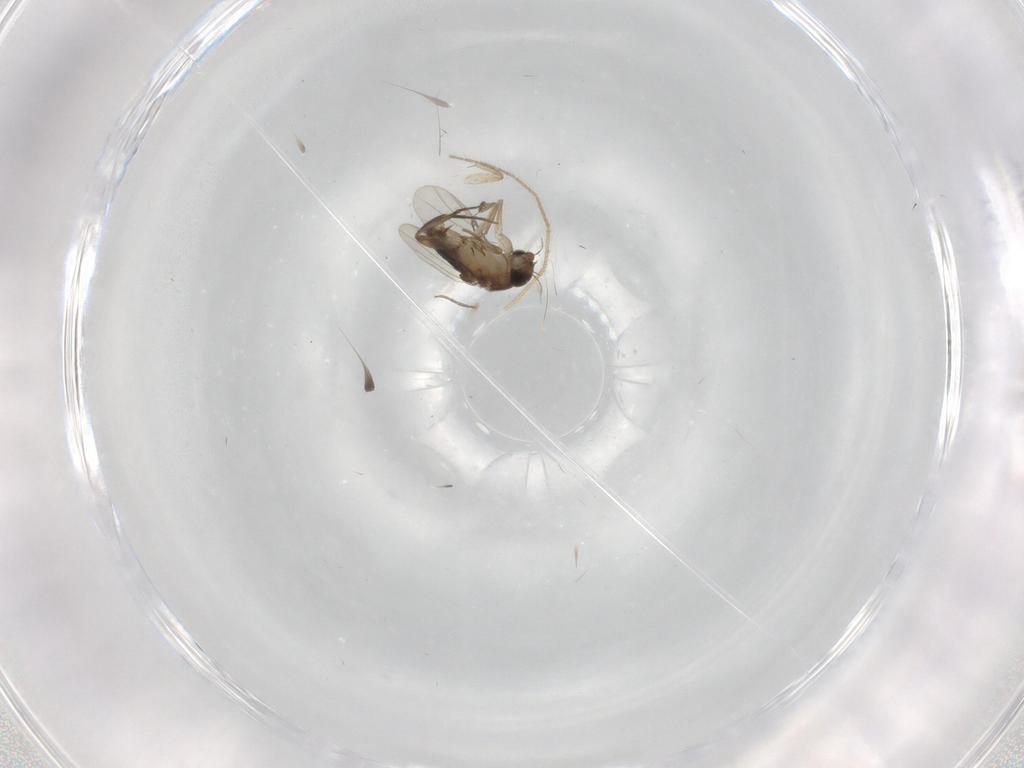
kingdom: Animalia
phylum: Arthropoda
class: Insecta
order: Diptera
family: Phoridae
